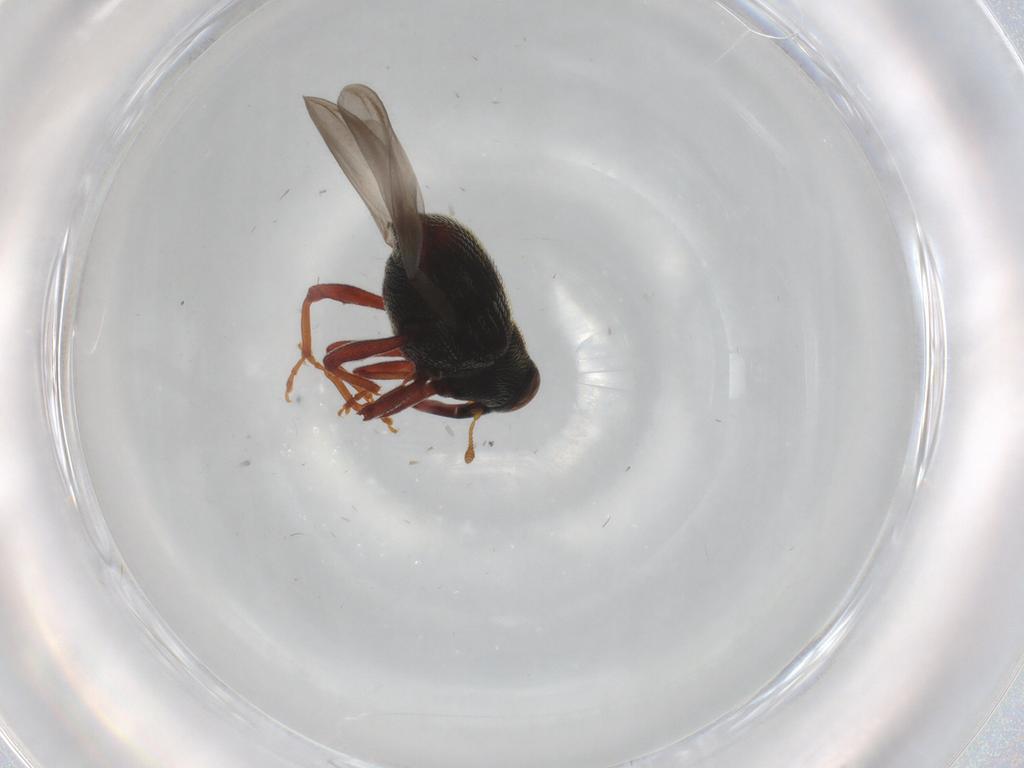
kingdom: Animalia
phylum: Arthropoda
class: Insecta
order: Coleoptera
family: Curculionidae
